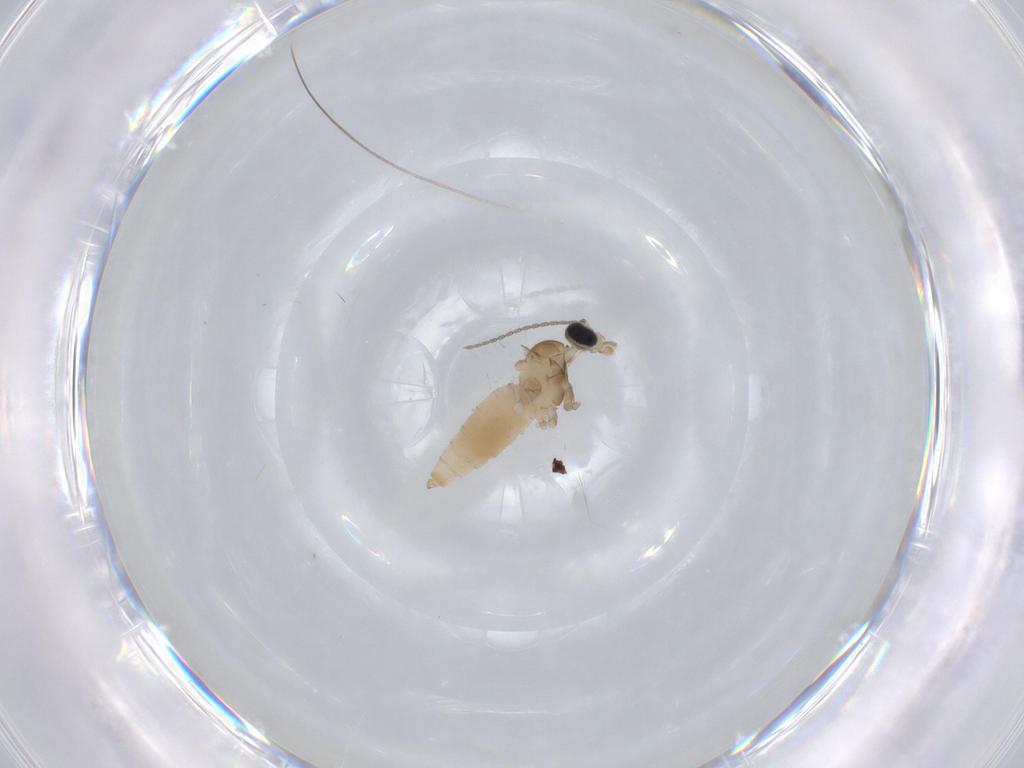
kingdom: Animalia
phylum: Arthropoda
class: Insecta
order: Diptera
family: Cecidomyiidae
